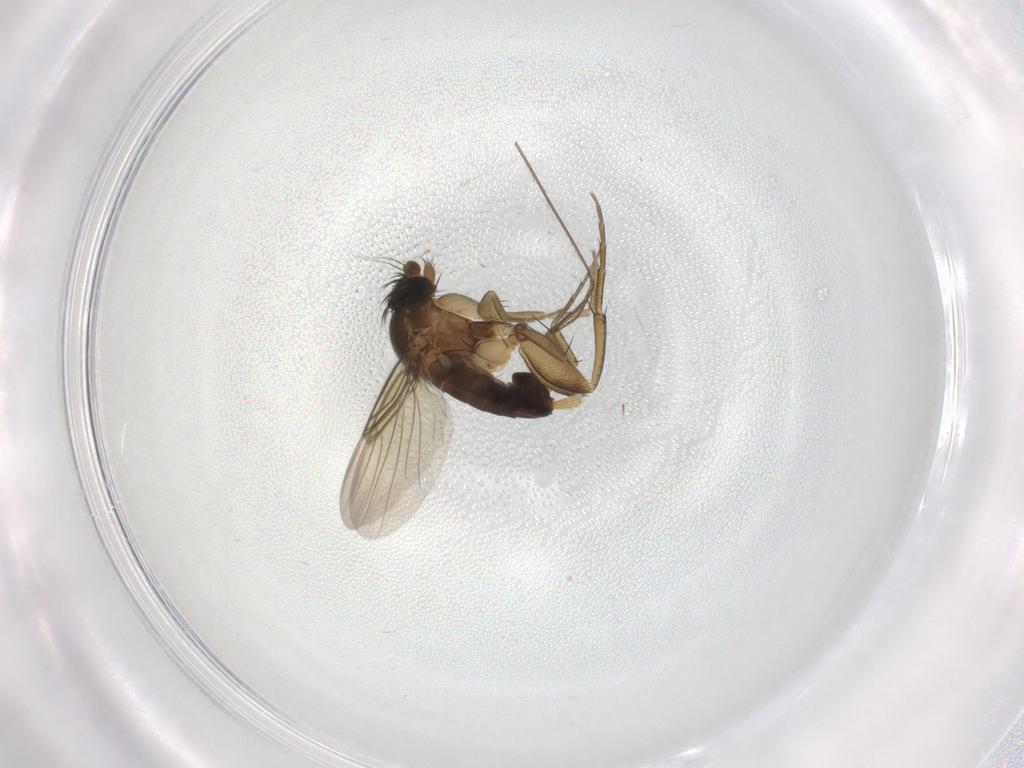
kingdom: Animalia
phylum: Arthropoda
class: Insecta
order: Diptera
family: Phoridae
